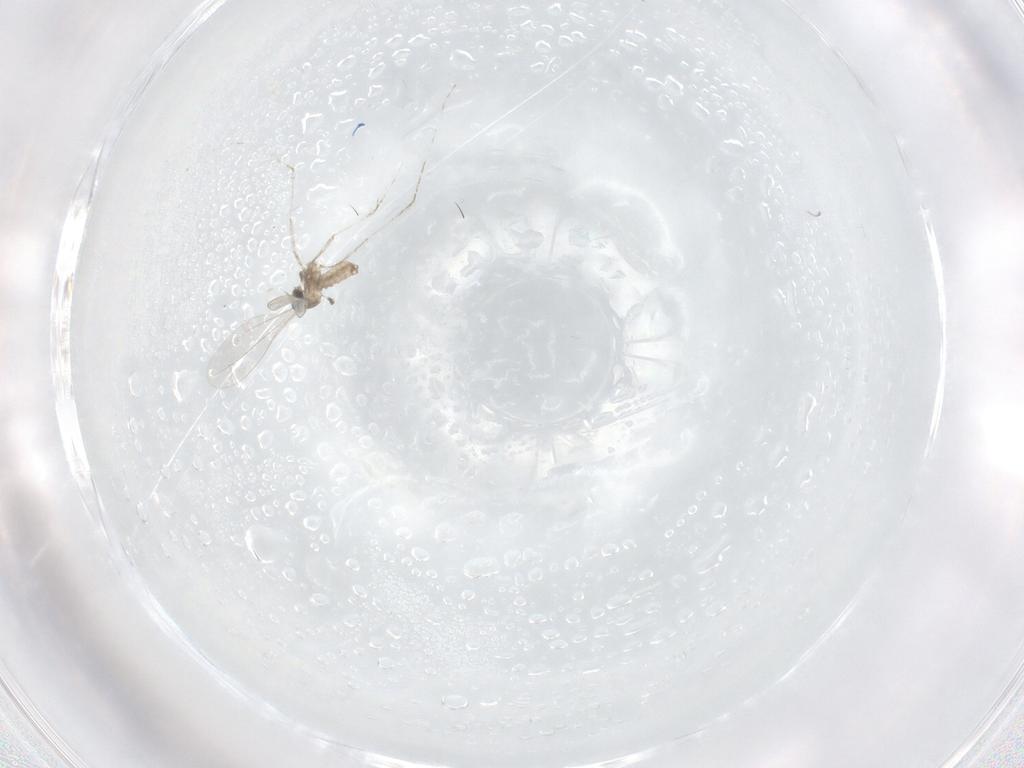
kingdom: Animalia
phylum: Arthropoda
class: Insecta
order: Diptera
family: Cecidomyiidae
